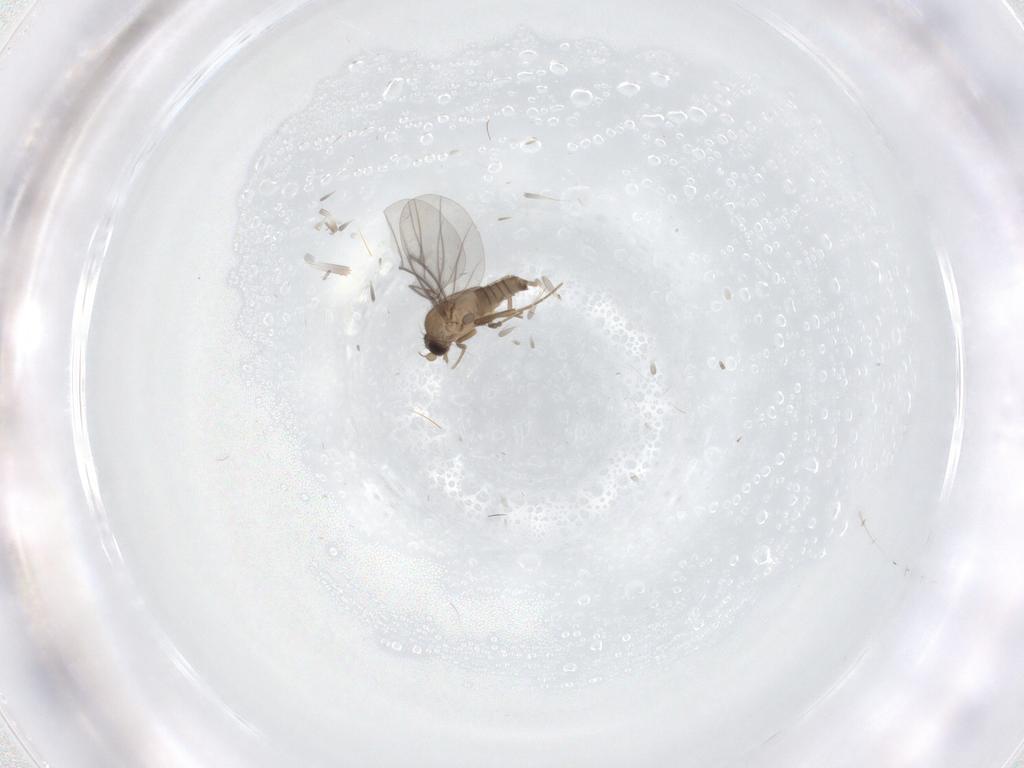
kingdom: Animalia
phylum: Arthropoda
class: Insecta
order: Diptera
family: Cecidomyiidae
